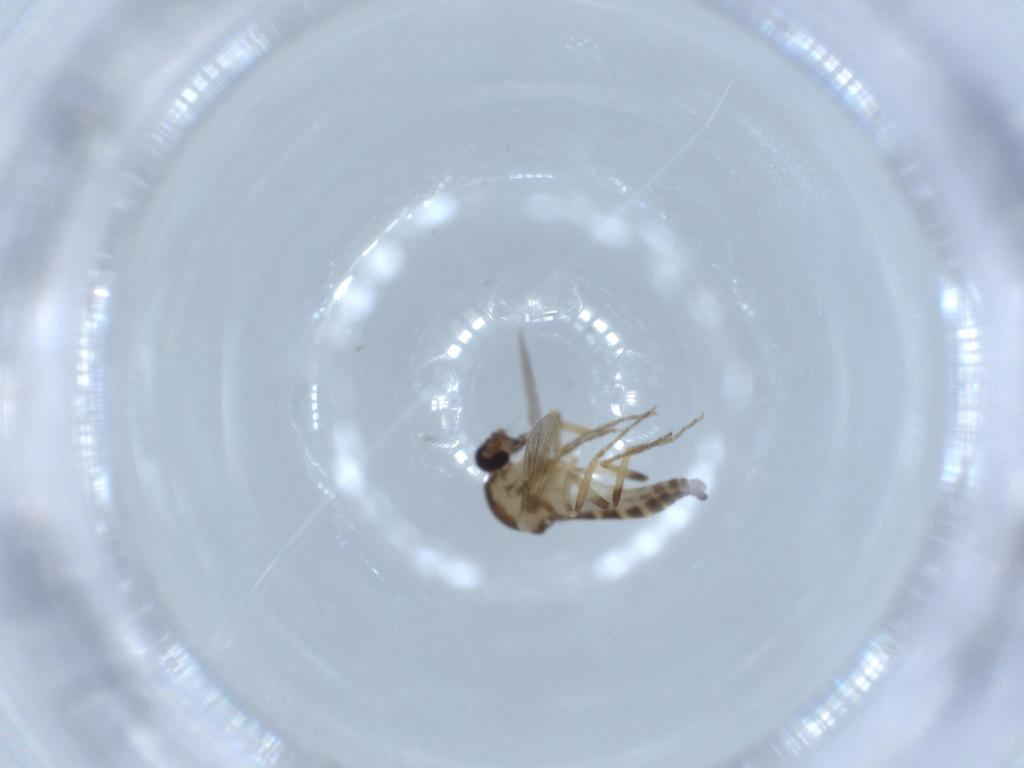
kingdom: Animalia
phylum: Arthropoda
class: Insecta
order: Diptera
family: Ceratopogonidae
